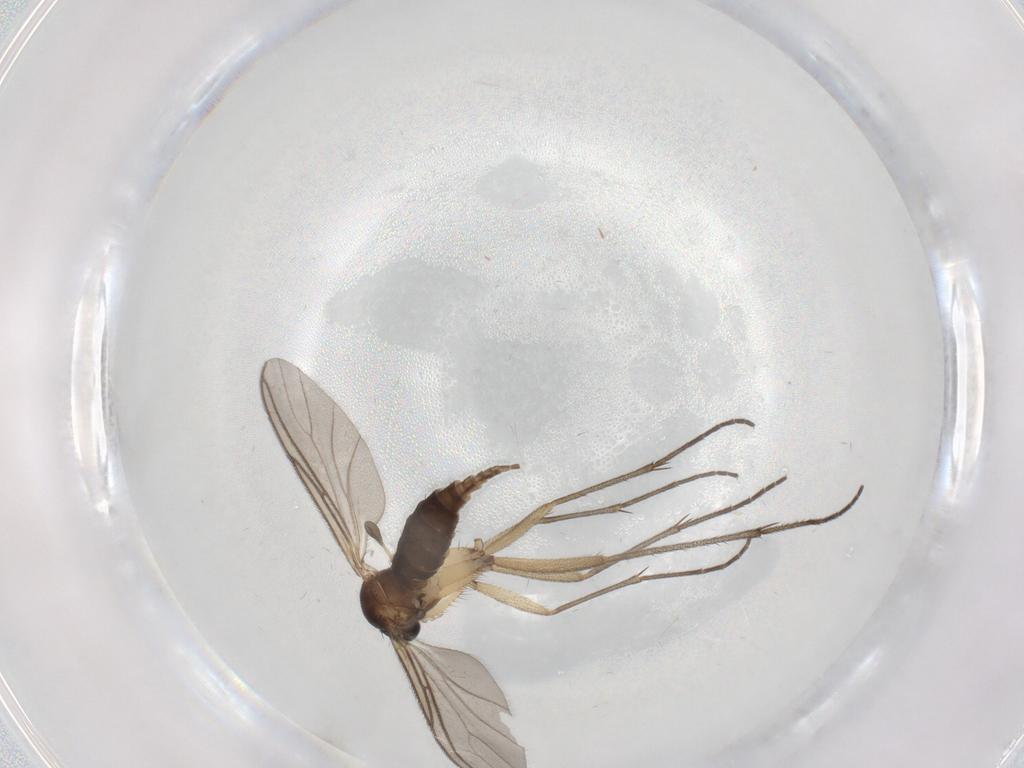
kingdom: Animalia
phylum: Arthropoda
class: Insecta
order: Diptera
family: Sciaridae
